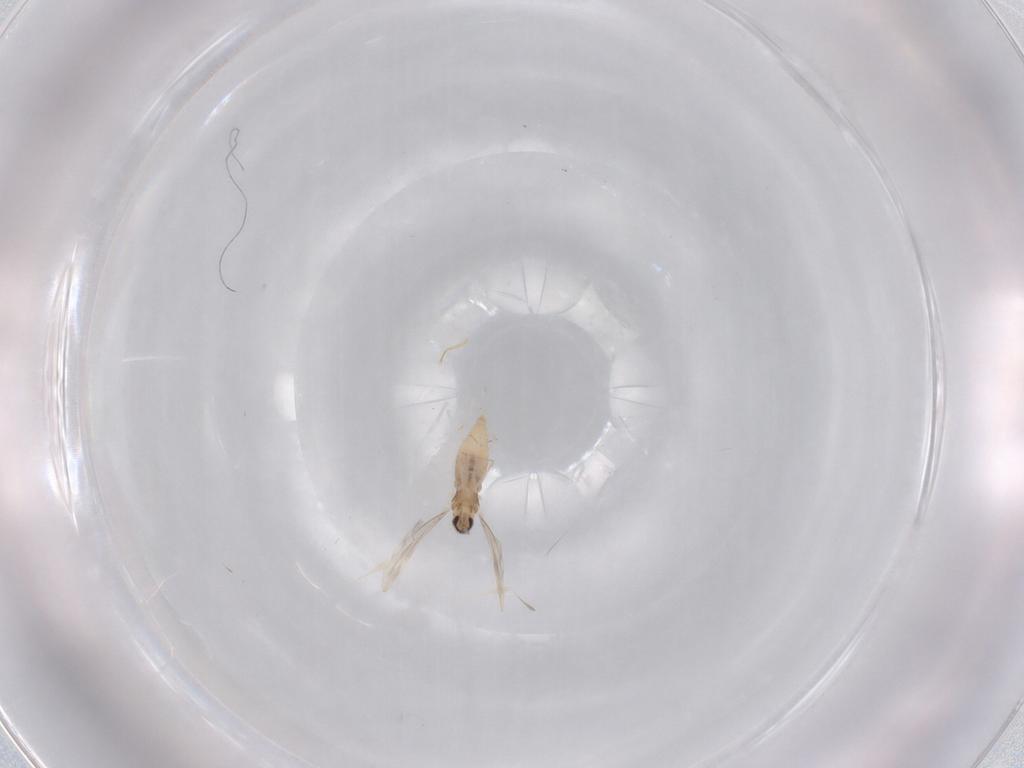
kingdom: Animalia
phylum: Arthropoda
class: Insecta
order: Diptera
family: Cecidomyiidae
